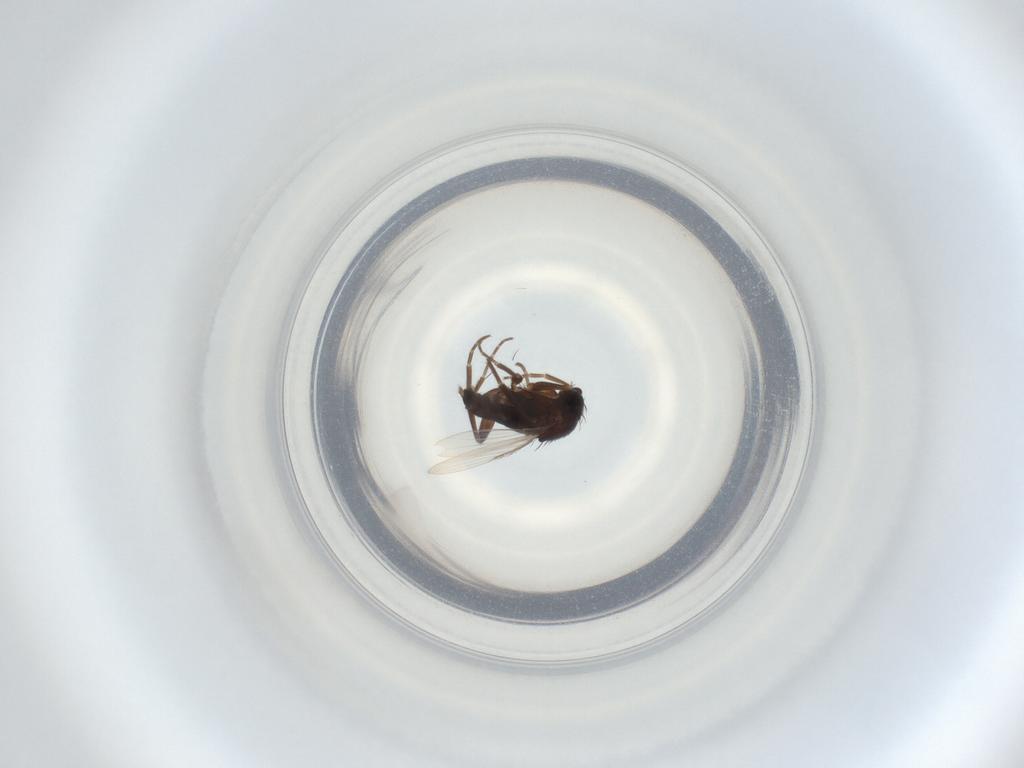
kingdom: Animalia
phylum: Arthropoda
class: Insecta
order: Diptera
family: Phoridae
